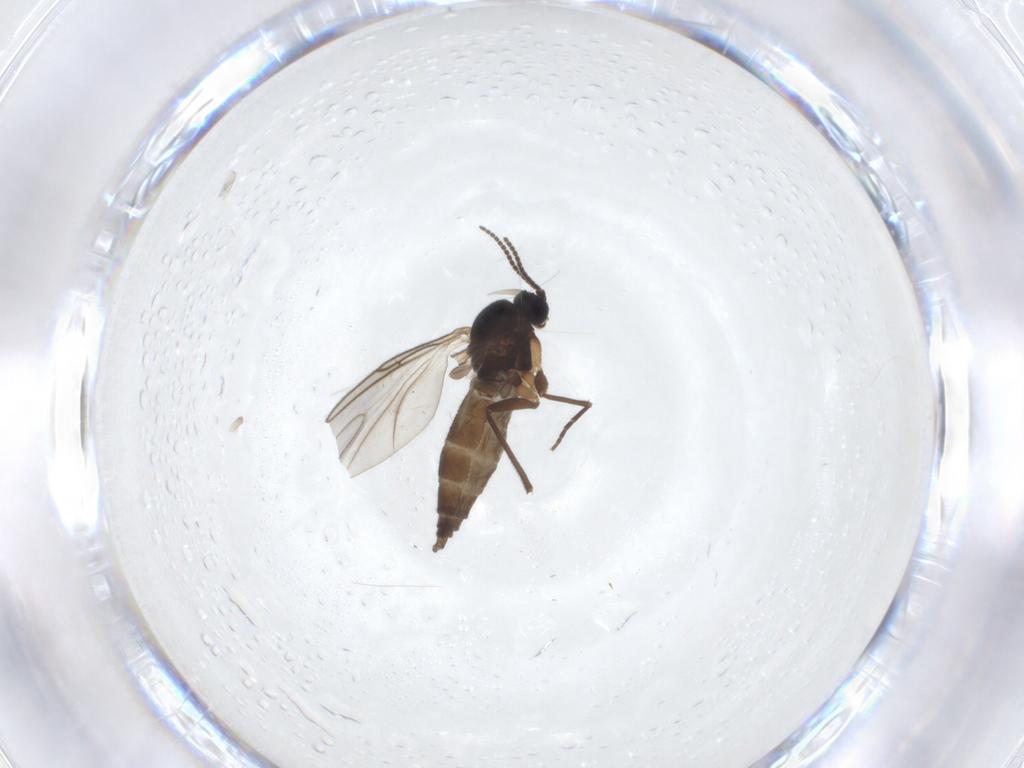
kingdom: Animalia
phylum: Arthropoda
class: Insecta
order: Diptera
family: Sciaridae
